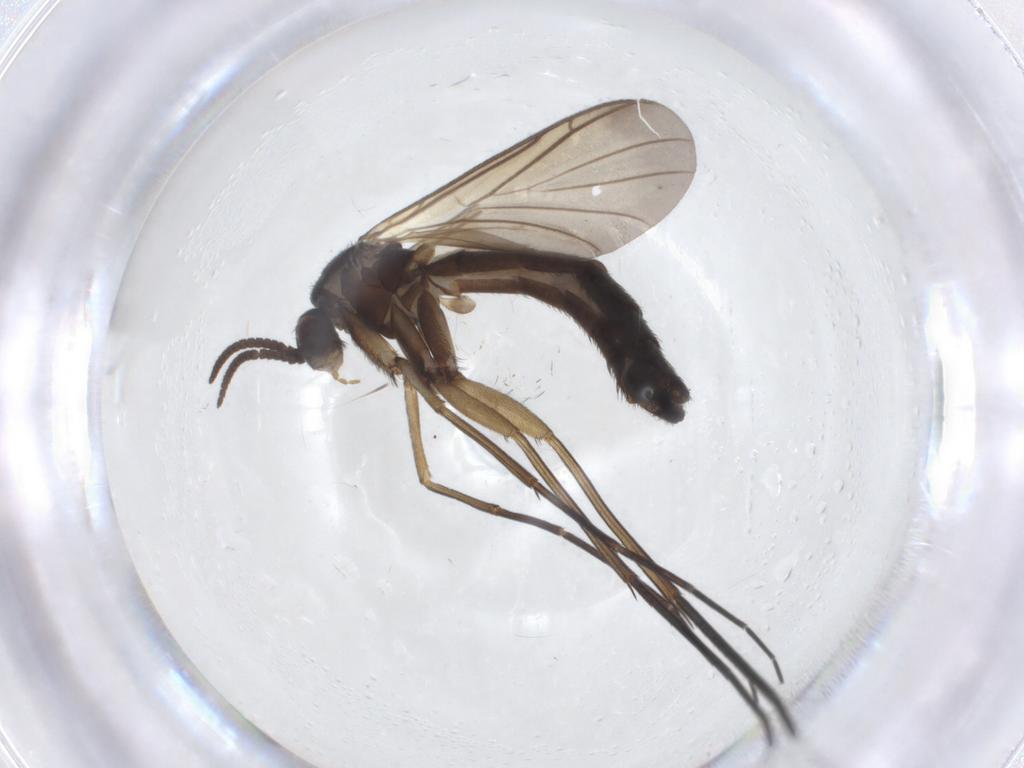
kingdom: Animalia
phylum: Arthropoda
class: Insecta
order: Diptera
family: Keroplatidae
